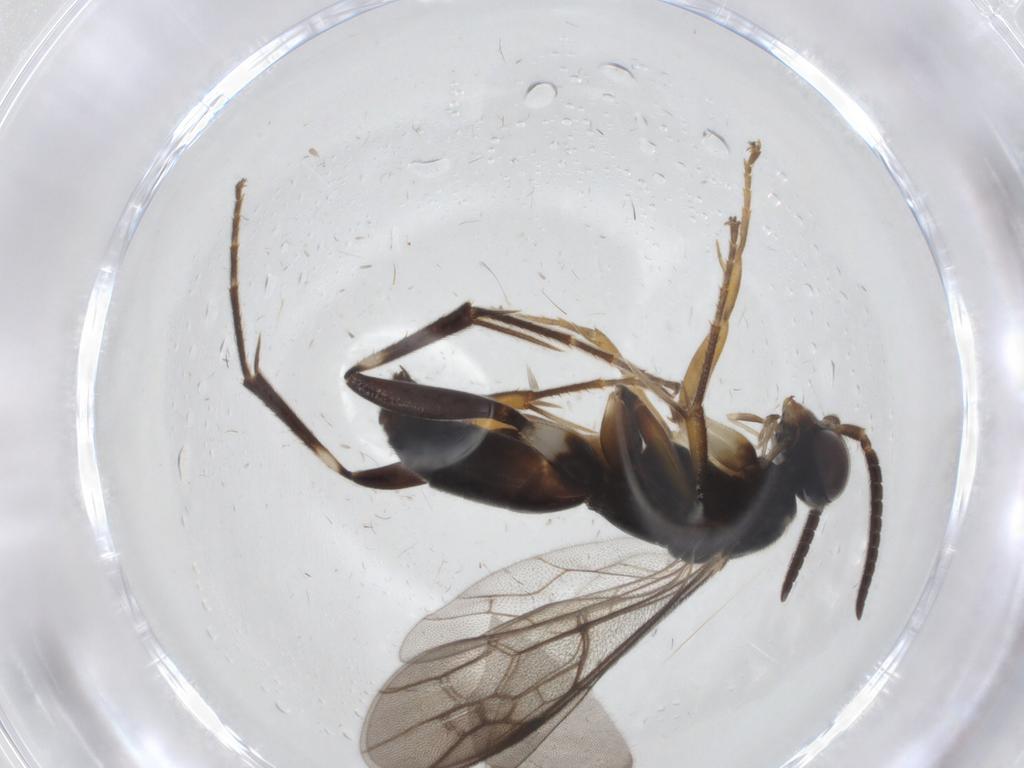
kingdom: Animalia
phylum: Arthropoda
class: Insecta
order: Hymenoptera
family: Pompilidae
